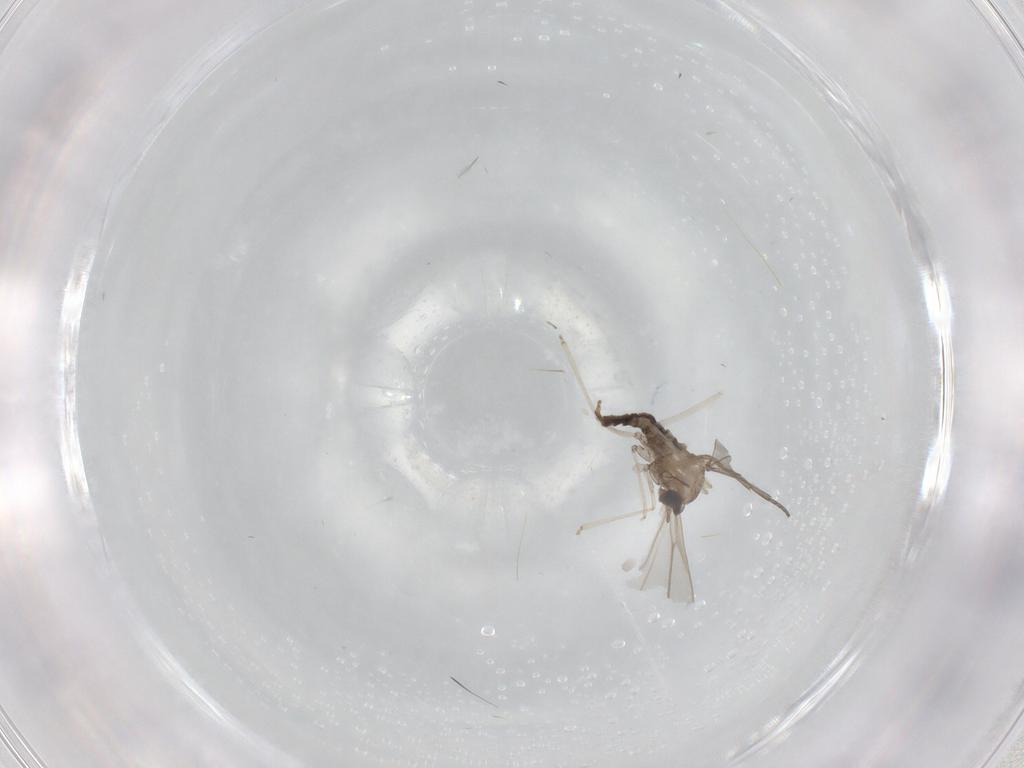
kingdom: Animalia
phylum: Arthropoda
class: Insecta
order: Diptera
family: Cecidomyiidae
